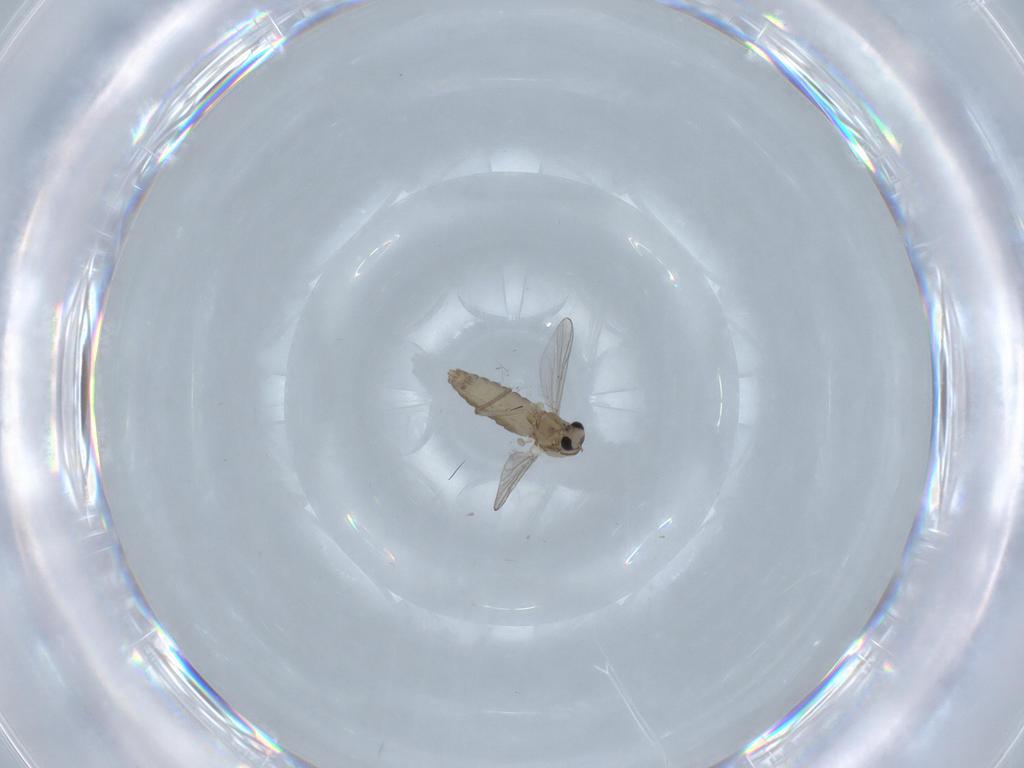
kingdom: Animalia
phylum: Arthropoda
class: Insecta
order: Diptera
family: Chironomidae
